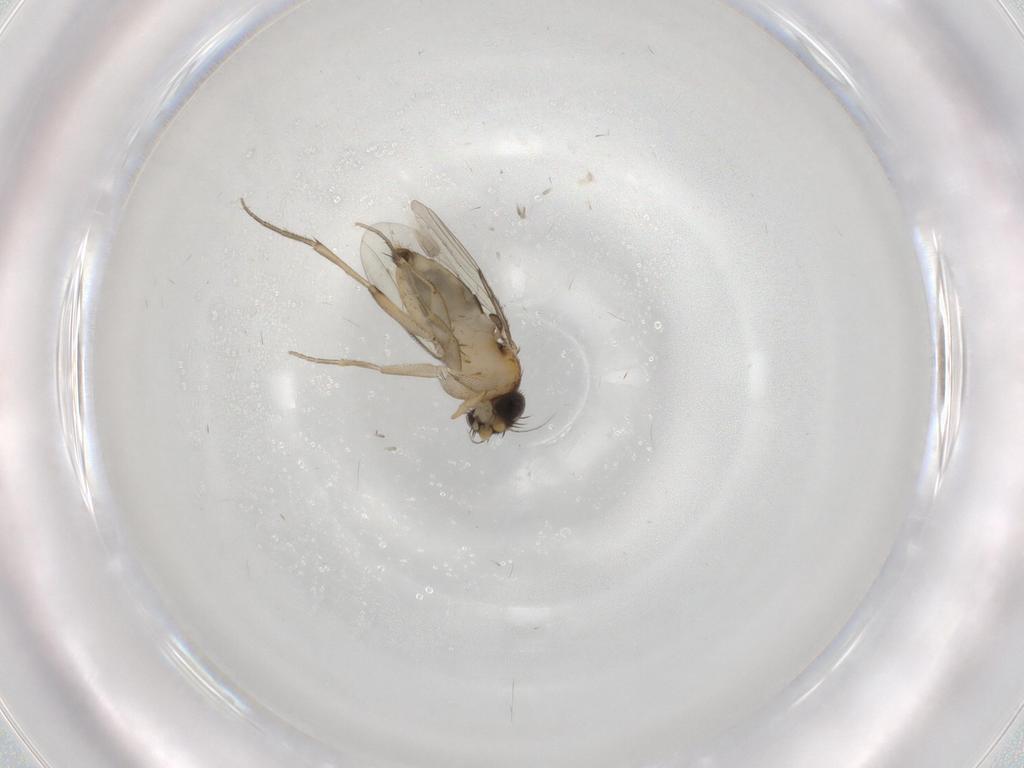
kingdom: Animalia
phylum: Arthropoda
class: Insecta
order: Diptera
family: Phoridae
